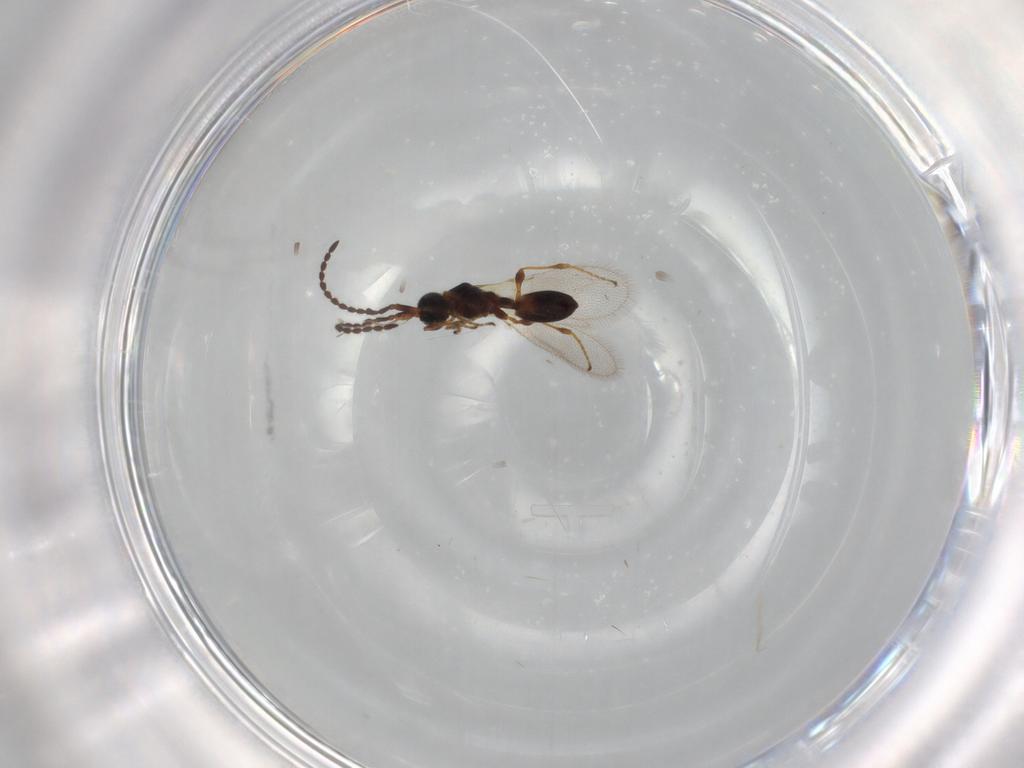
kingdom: Animalia
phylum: Arthropoda
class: Insecta
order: Hymenoptera
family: Diapriidae
